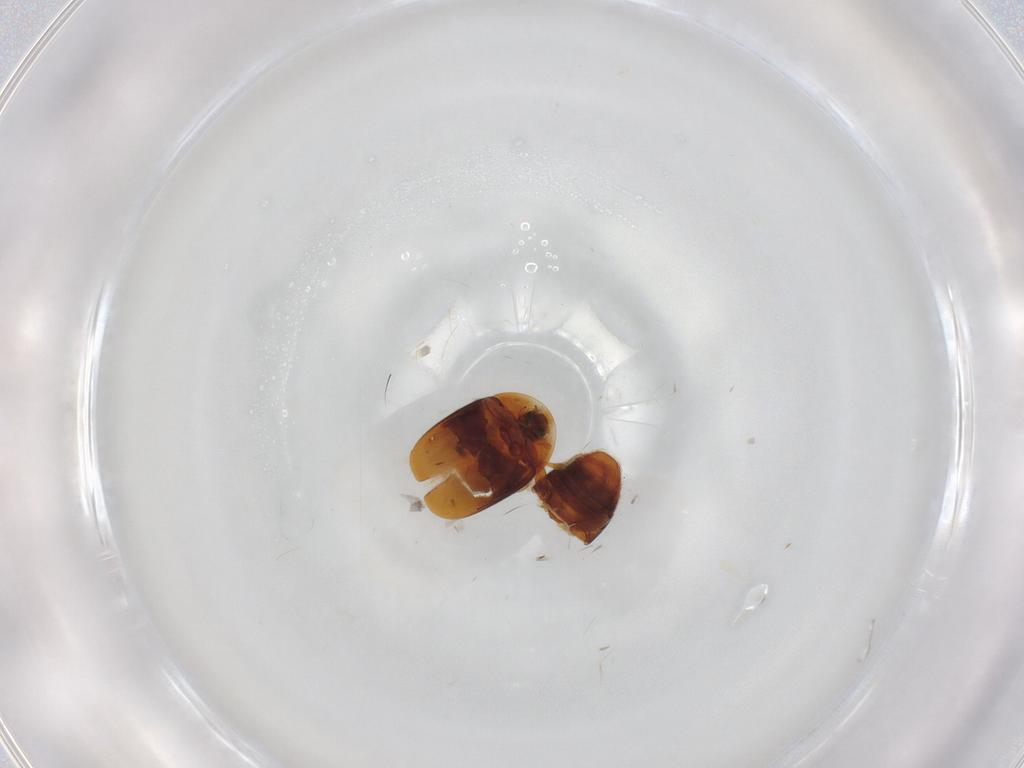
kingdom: Animalia
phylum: Arthropoda
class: Insecta
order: Coleoptera
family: Corylophidae
